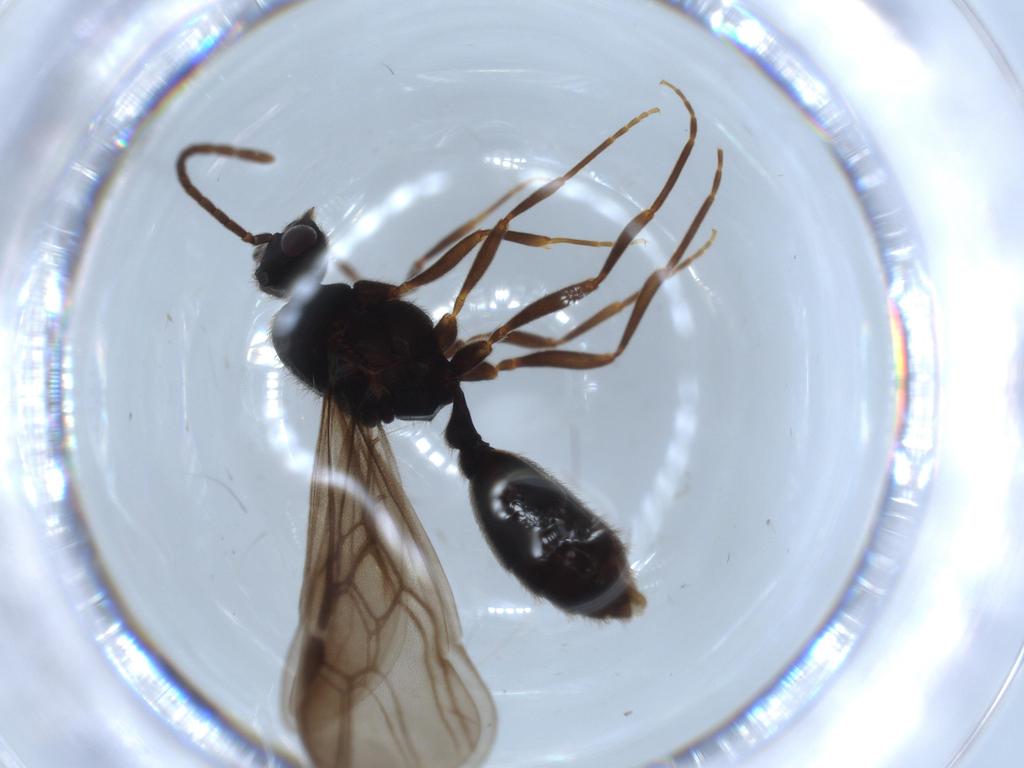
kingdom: Animalia
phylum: Arthropoda
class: Insecta
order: Hymenoptera
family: Formicidae
